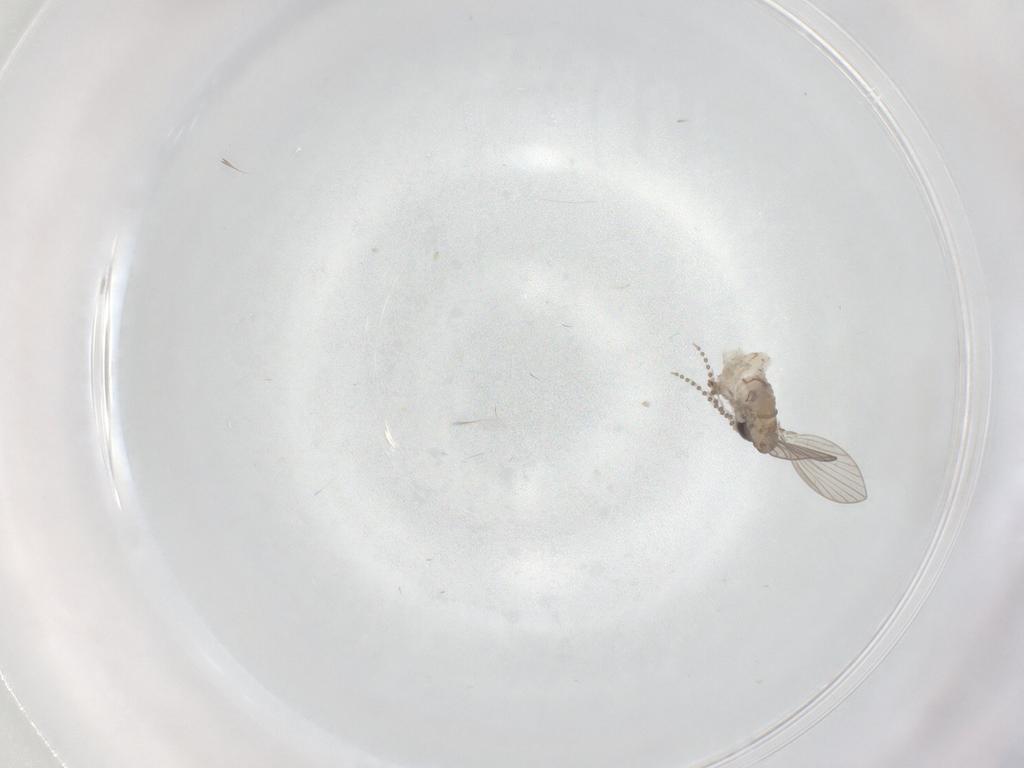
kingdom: Animalia
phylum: Arthropoda
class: Insecta
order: Diptera
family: Psychodidae
